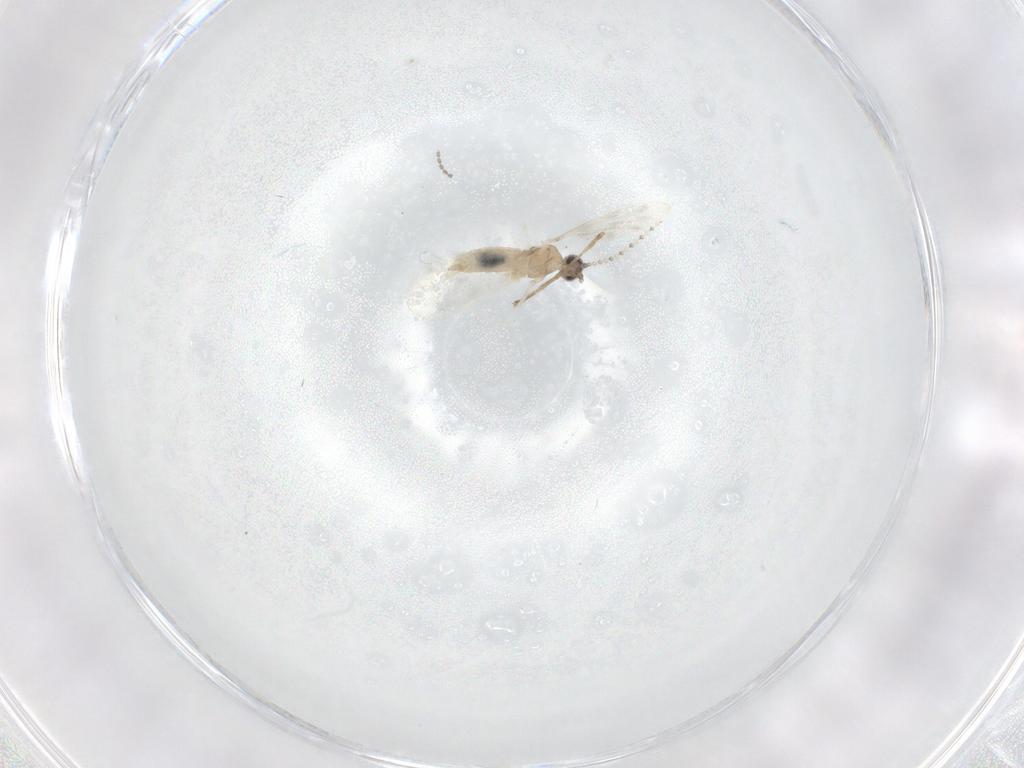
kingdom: Animalia
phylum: Arthropoda
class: Insecta
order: Diptera
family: Cecidomyiidae
